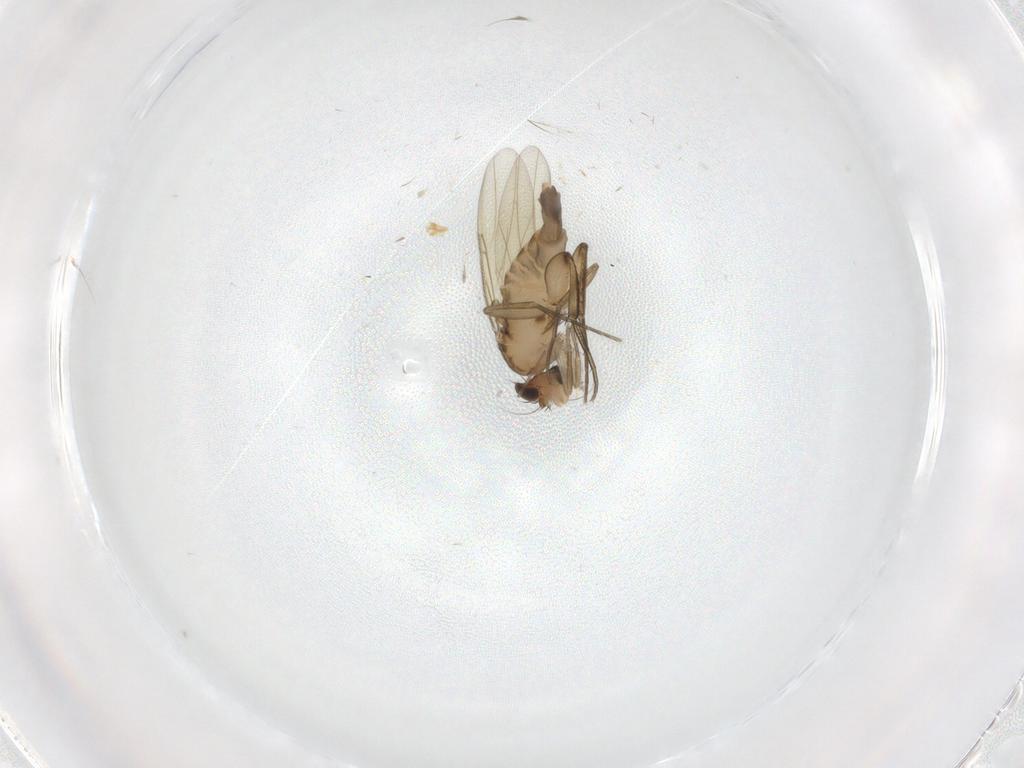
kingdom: Animalia
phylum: Arthropoda
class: Insecta
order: Diptera
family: Phoridae
